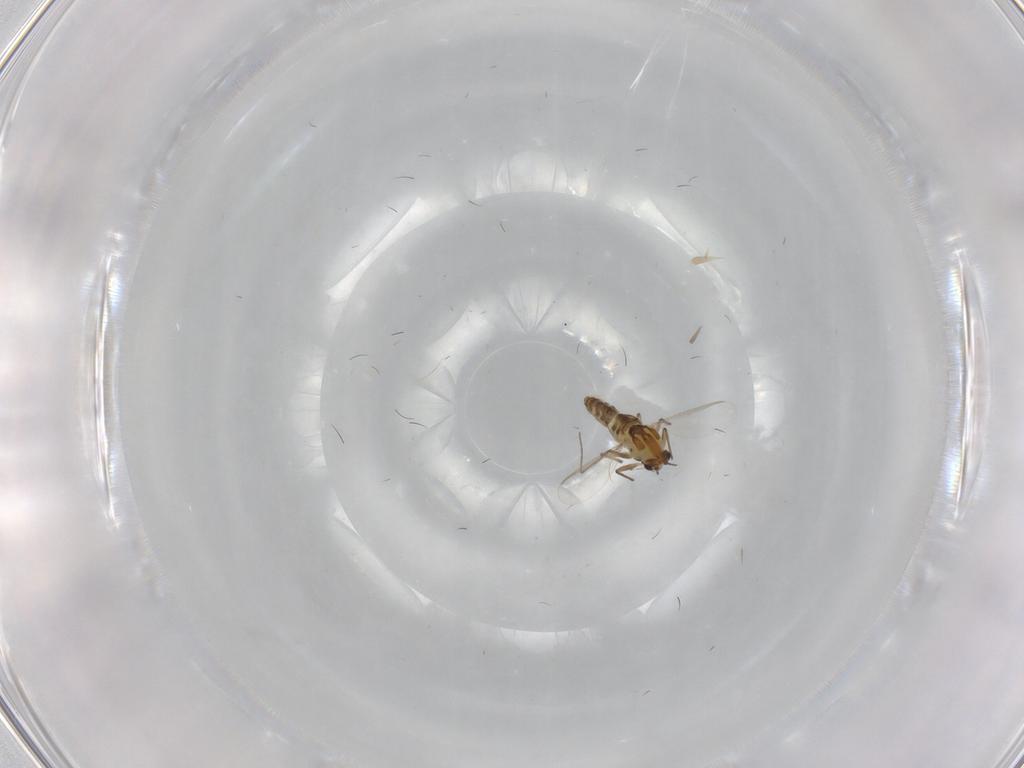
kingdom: Animalia
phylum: Arthropoda
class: Insecta
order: Diptera
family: Chironomidae
